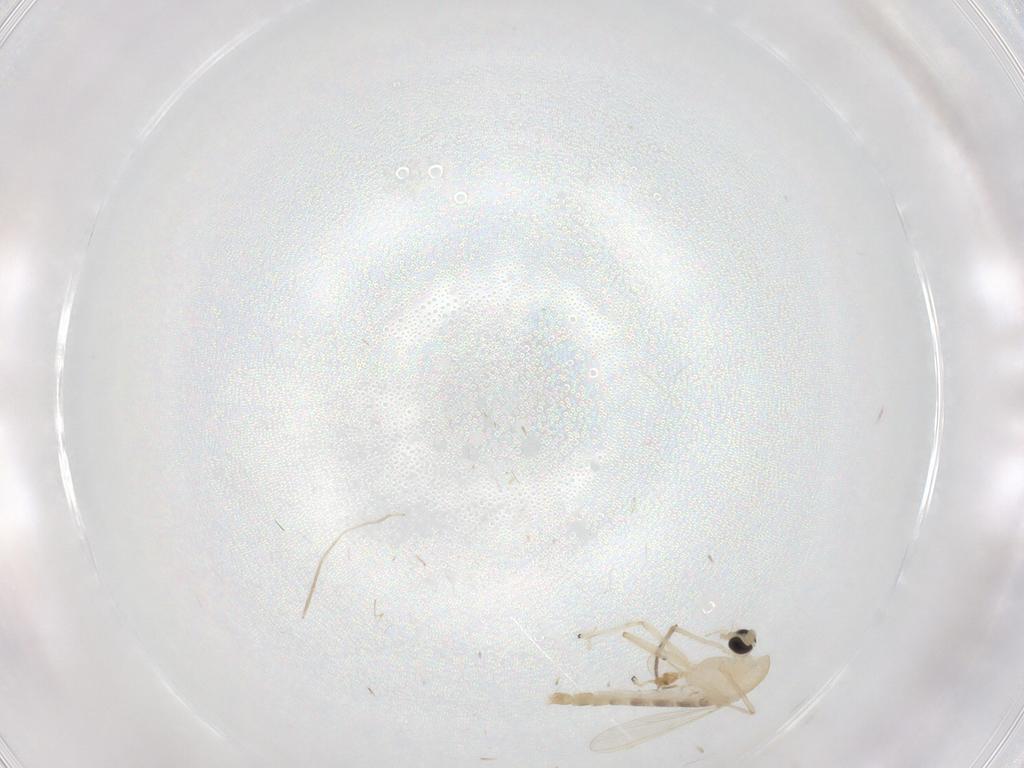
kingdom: Animalia
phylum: Arthropoda
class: Insecta
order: Diptera
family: Chironomidae
